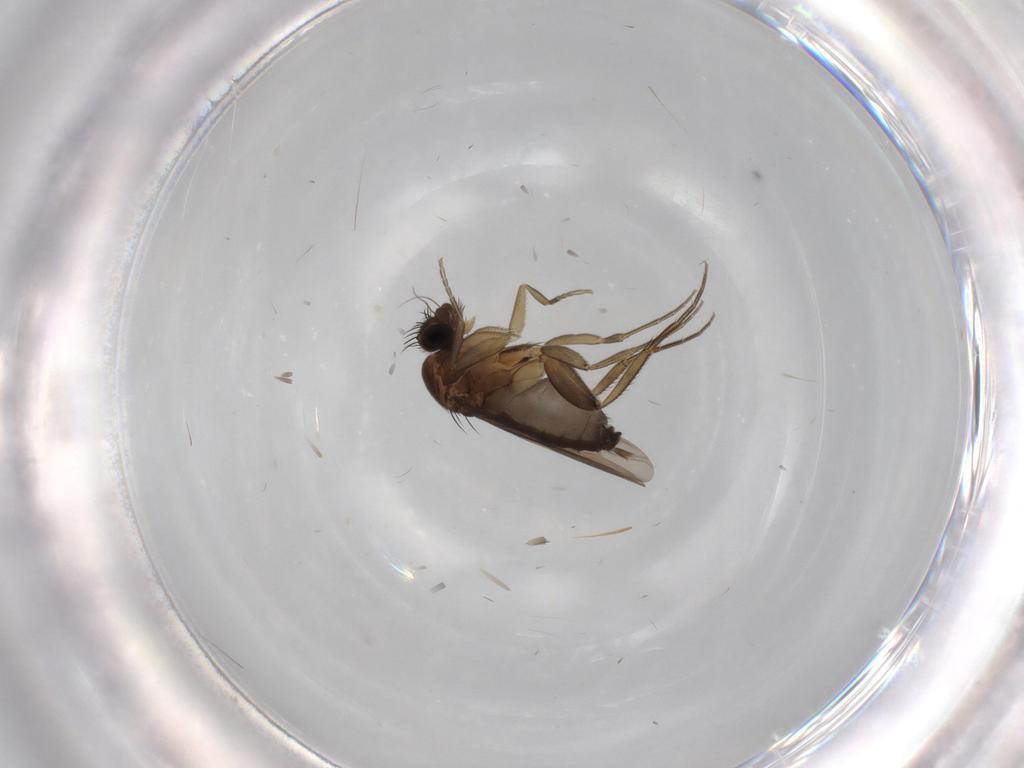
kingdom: Animalia
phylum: Arthropoda
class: Insecta
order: Diptera
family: Phoridae
